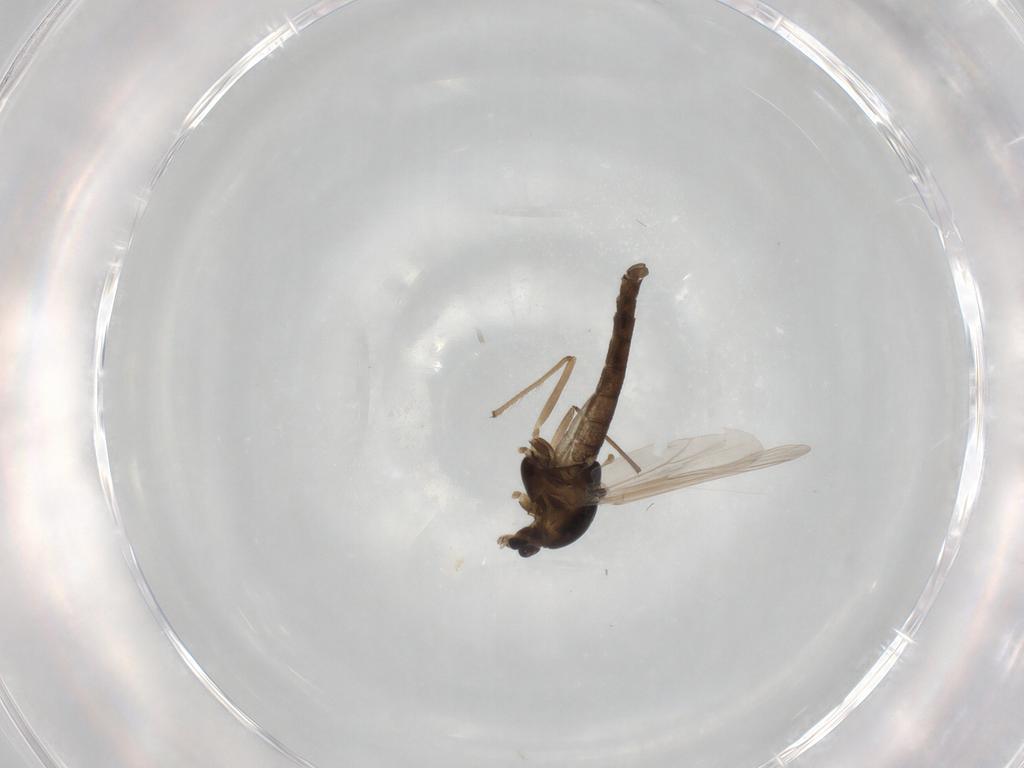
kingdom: Animalia
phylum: Arthropoda
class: Insecta
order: Diptera
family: Chironomidae
